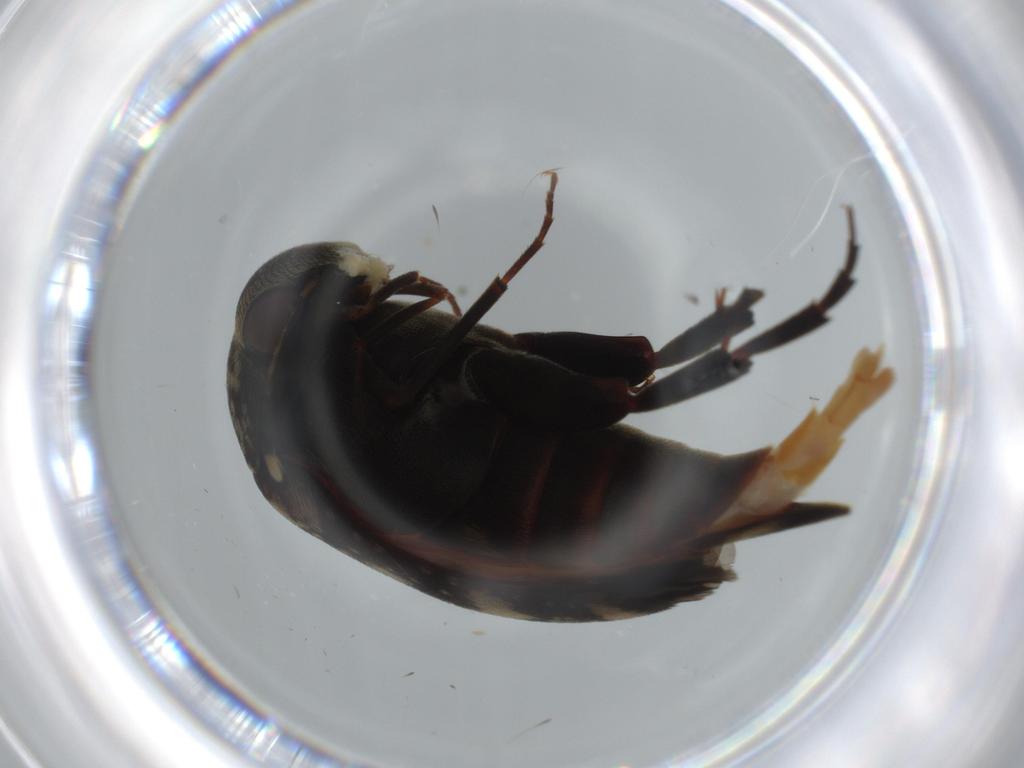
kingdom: Animalia
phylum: Arthropoda
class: Insecta
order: Coleoptera
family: Mordellidae
